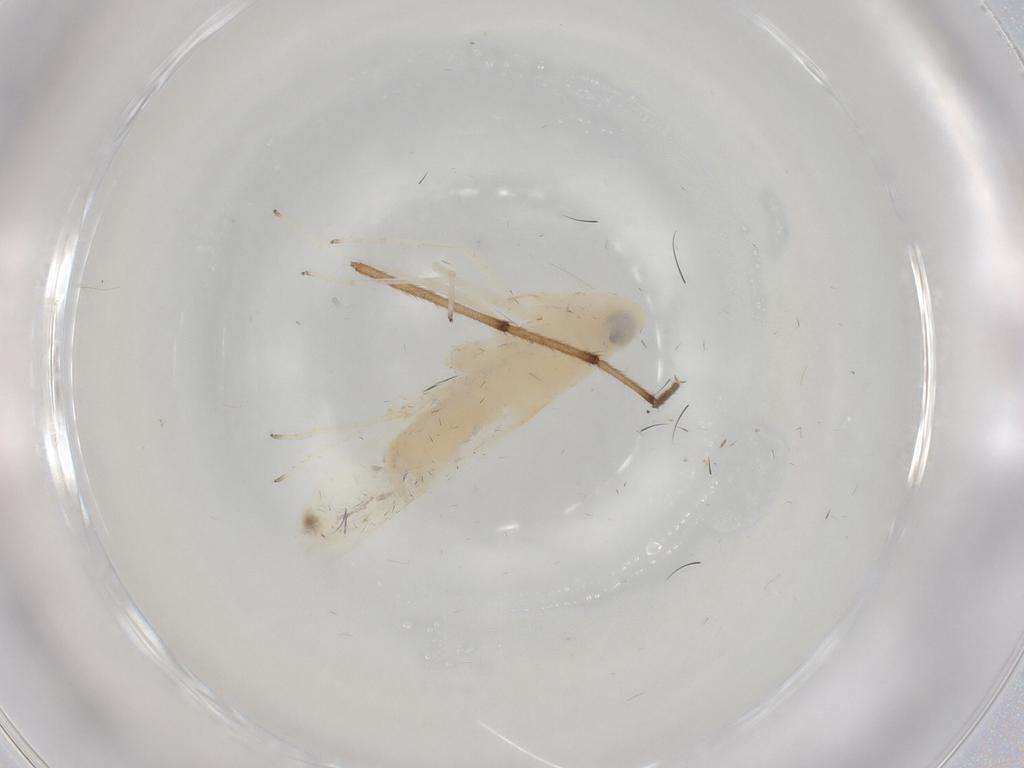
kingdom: Animalia
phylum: Arthropoda
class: Insecta
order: Hemiptera
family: Cicadellidae
